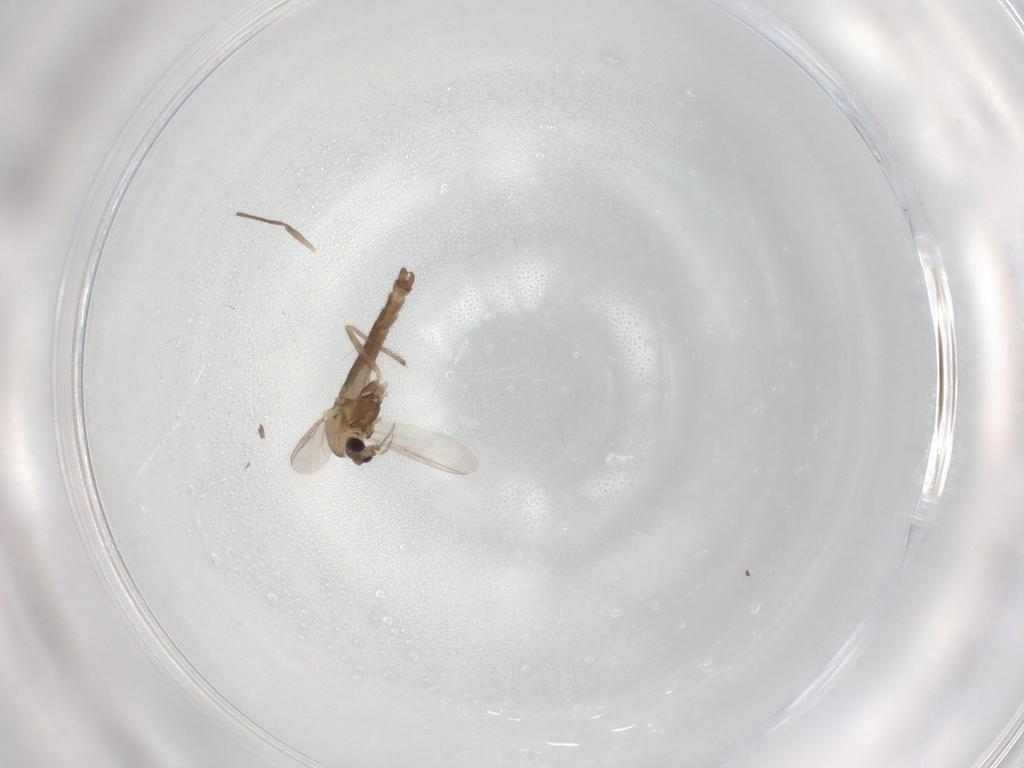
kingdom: Animalia
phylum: Arthropoda
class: Insecta
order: Diptera
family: Chironomidae
